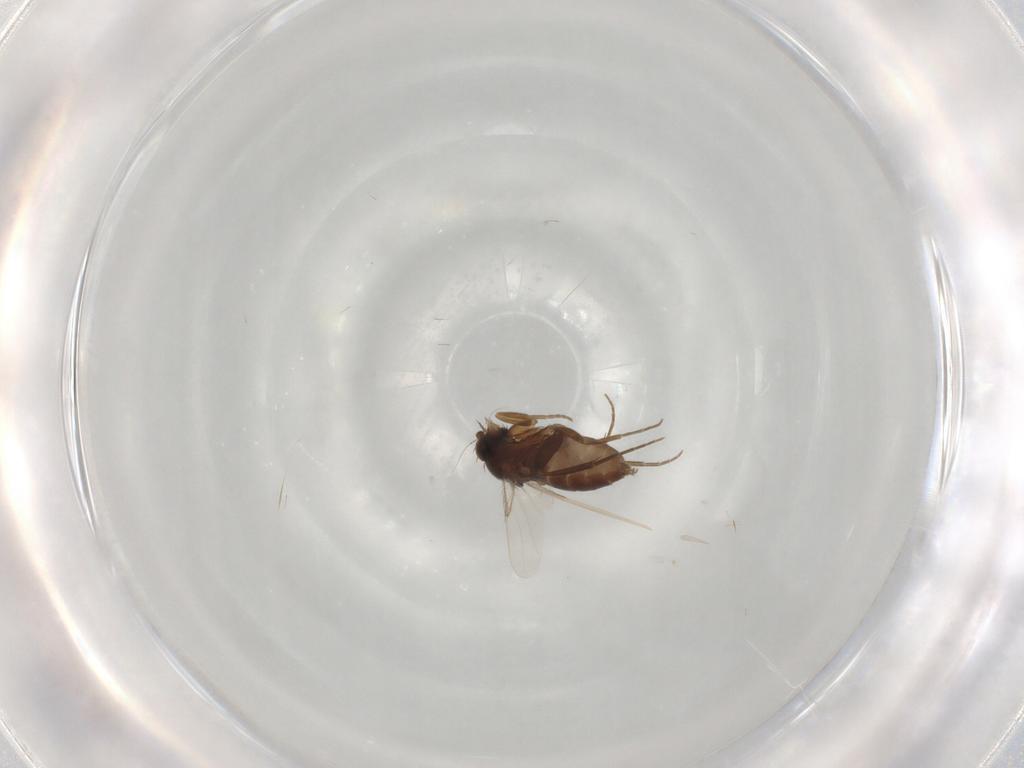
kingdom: Animalia
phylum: Arthropoda
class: Insecta
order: Diptera
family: Phoridae
